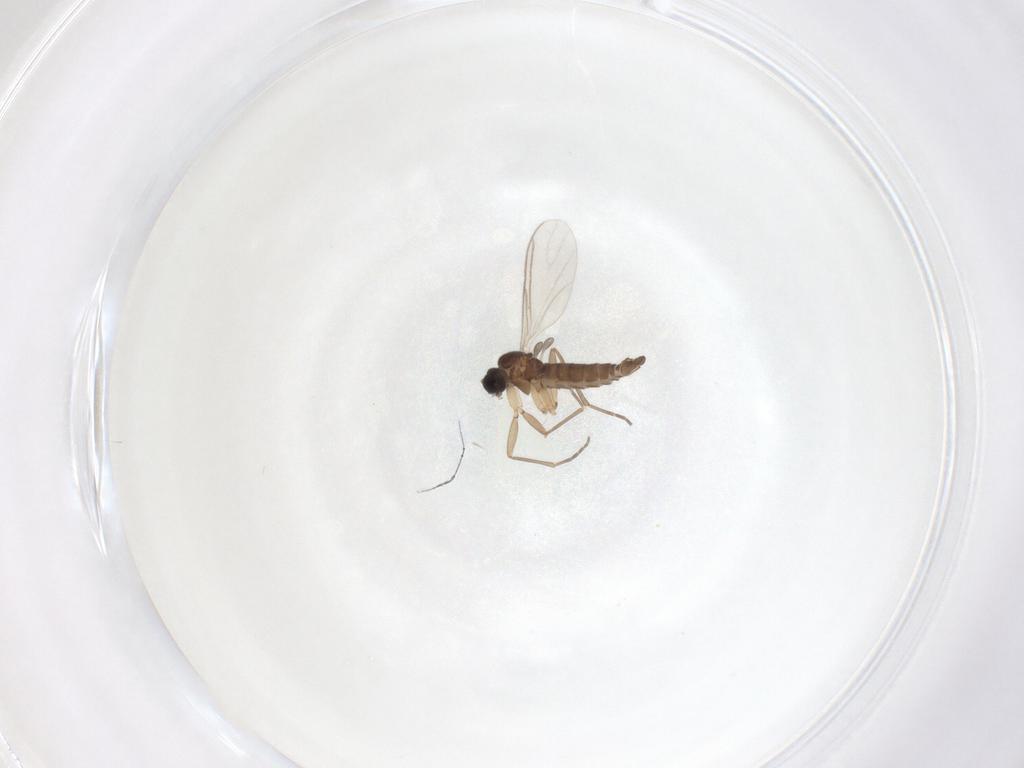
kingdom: Animalia
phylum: Arthropoda
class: Insecta
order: Diptera
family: Sciaridae
